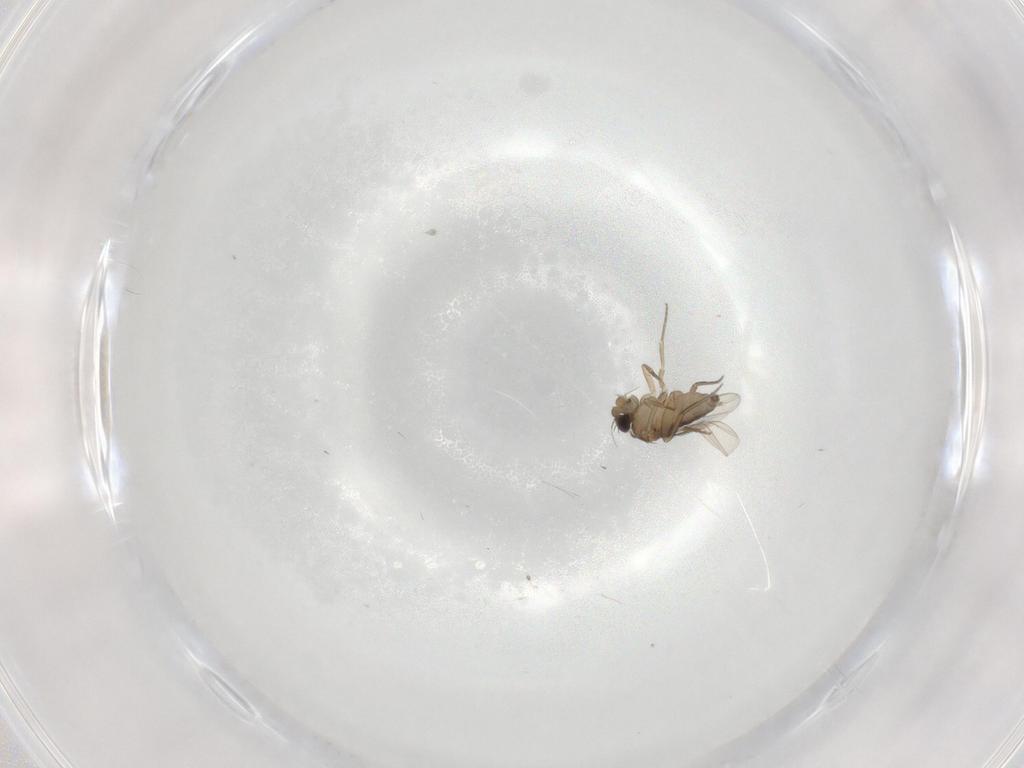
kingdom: Animalia
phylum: Arthropoda
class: Insecta
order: Diptera
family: Phoridae
